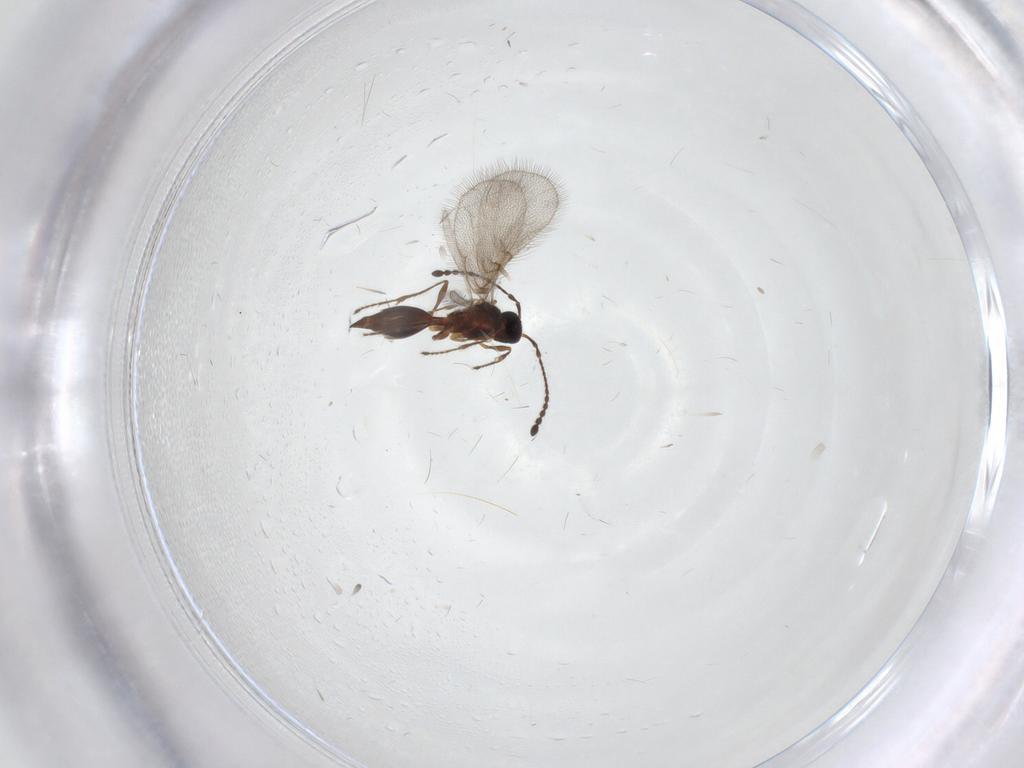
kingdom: Animalia
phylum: Arthropoda
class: Insecta
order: Hymenoptera
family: Diapriidae
